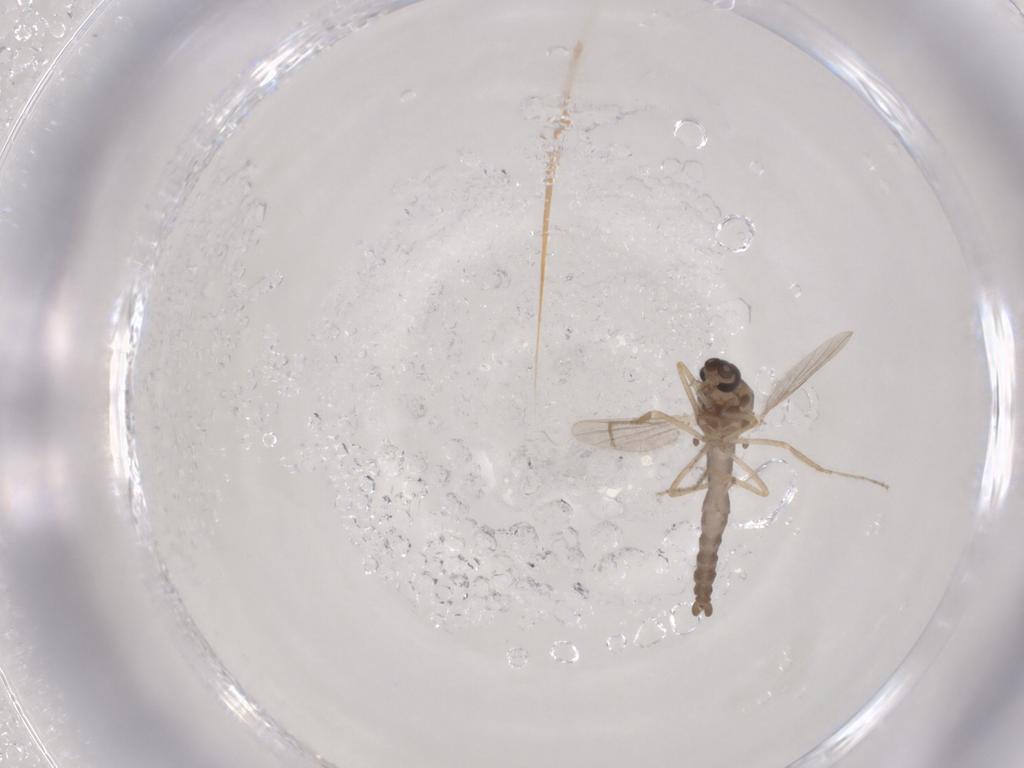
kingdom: Animalia
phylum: Arthropoda
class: Insecta
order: Diptera
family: Ceratopogonidae
